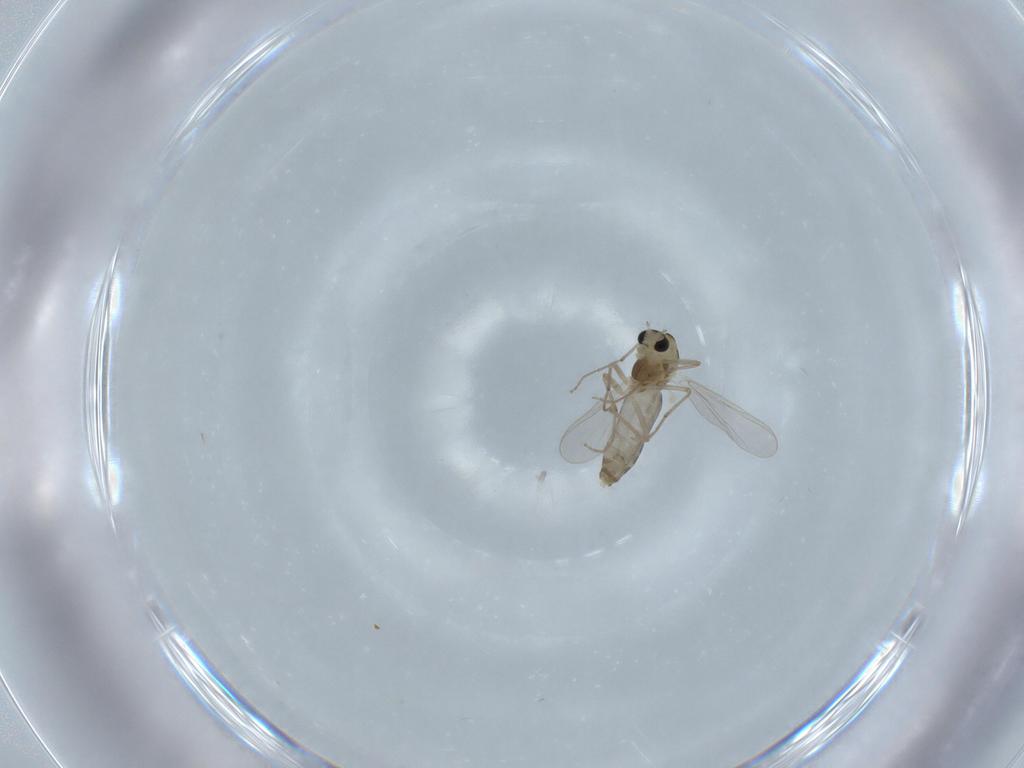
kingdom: Animalia
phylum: Arthropoda
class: Insecta
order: Diptera
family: Chironomidae
